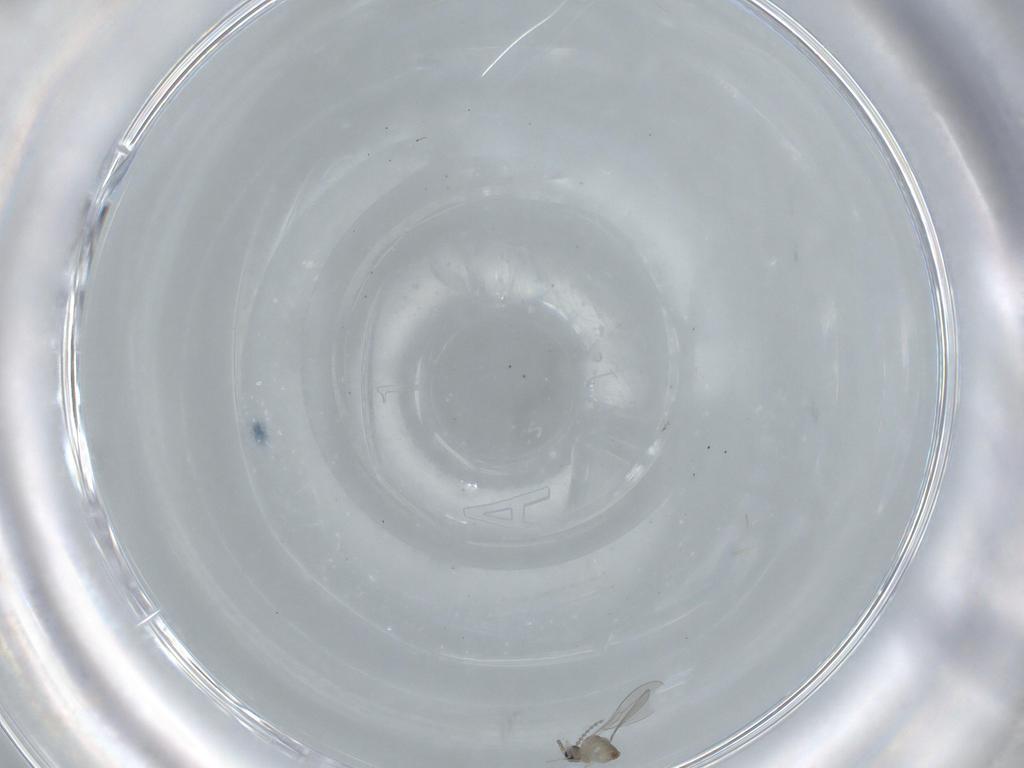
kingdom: Animalia
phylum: Arthropoda
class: Insecta
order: Diptera
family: Cecidomyiidae
